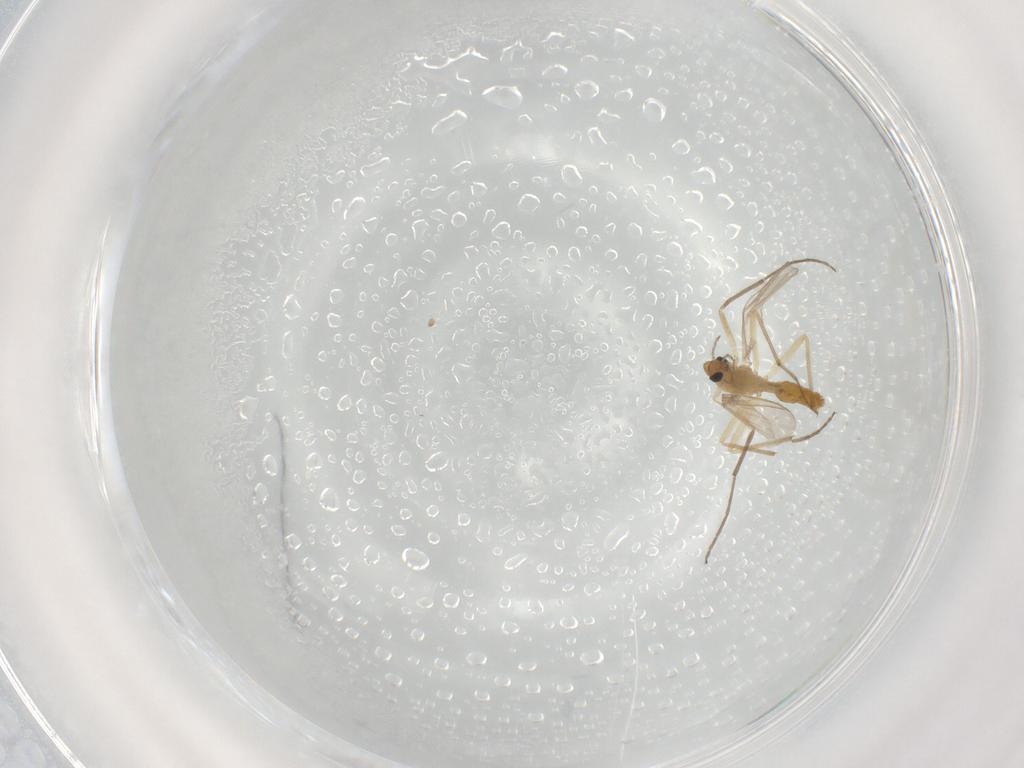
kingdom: Animalia
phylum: Arthropoda
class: Insecta
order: Diptera
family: Chironomidae
